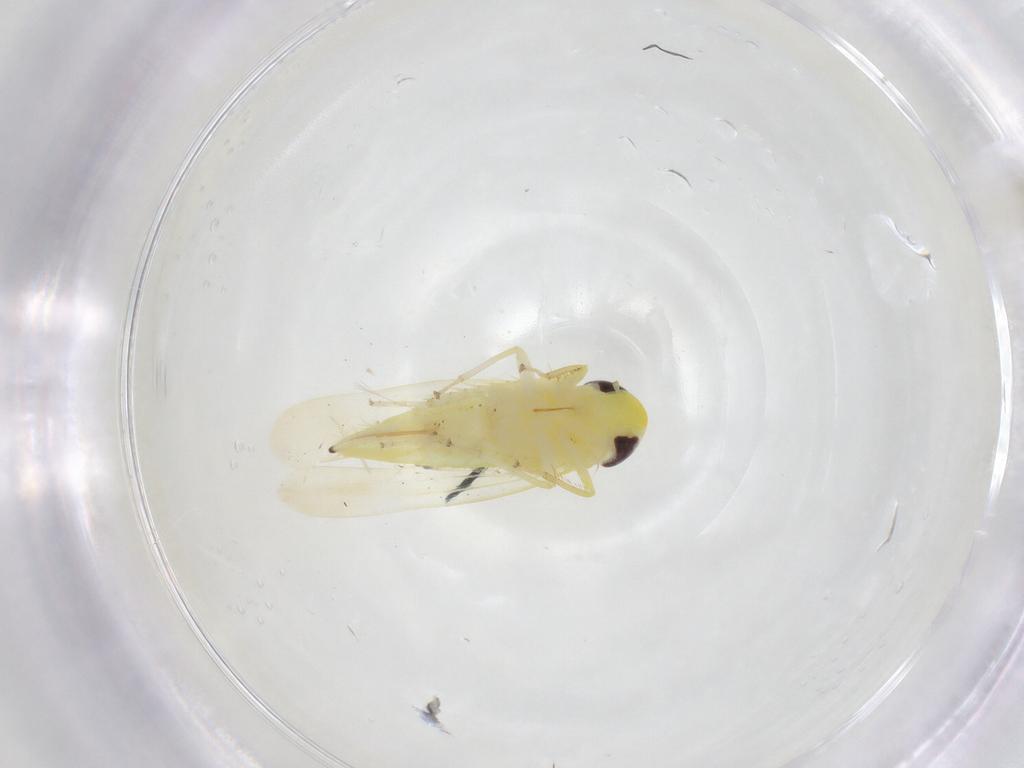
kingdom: Animalia
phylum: Arthropoda
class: Insecta
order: Hemiptera
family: Cicadellidae
